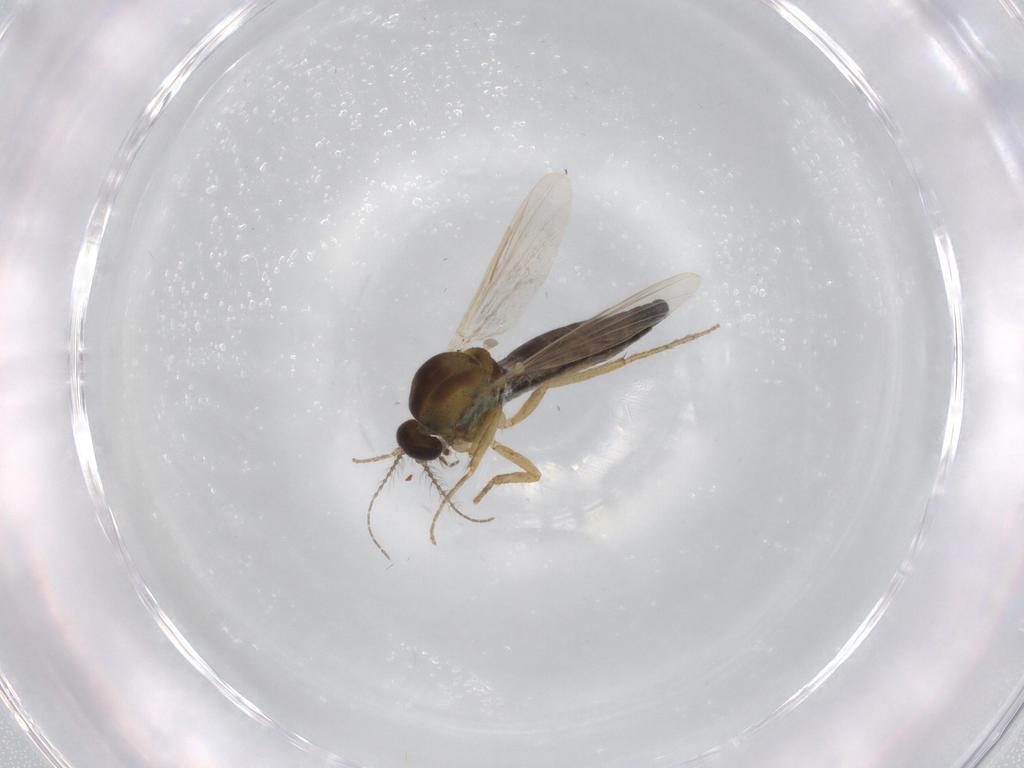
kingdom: Animalia
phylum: Arthropoda
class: Insecta
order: Diptera
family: Ceratopogonidae
